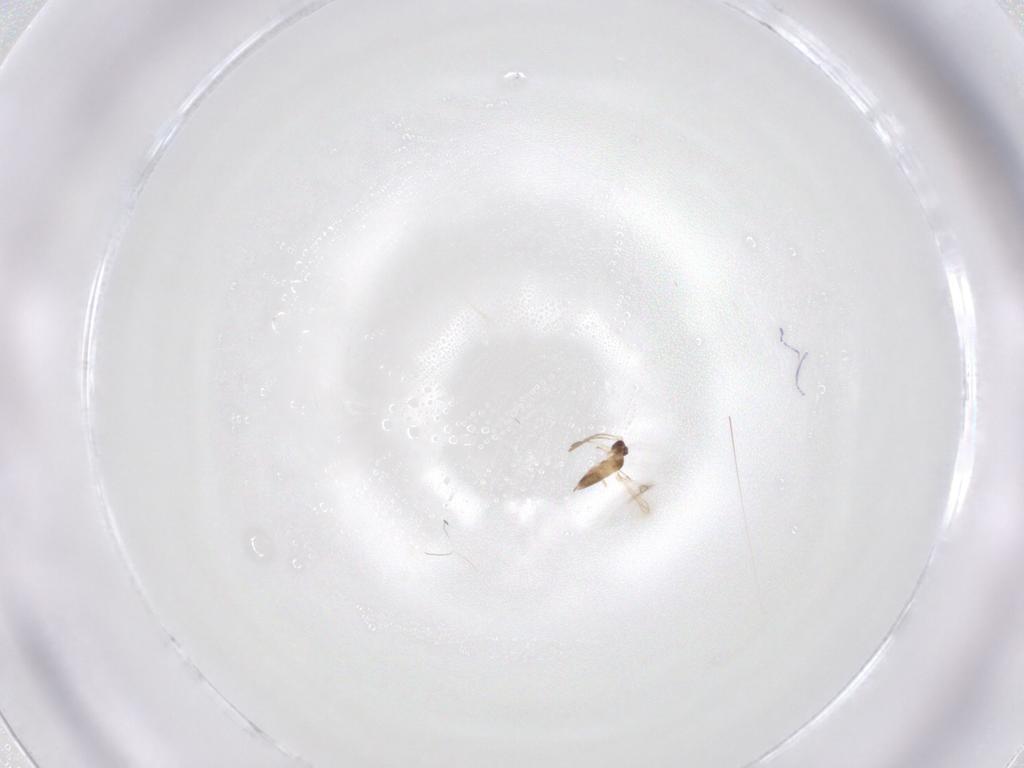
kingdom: Animalia
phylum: Arthropoda
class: Insecta
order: Hymenoptera
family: Mymaridae
